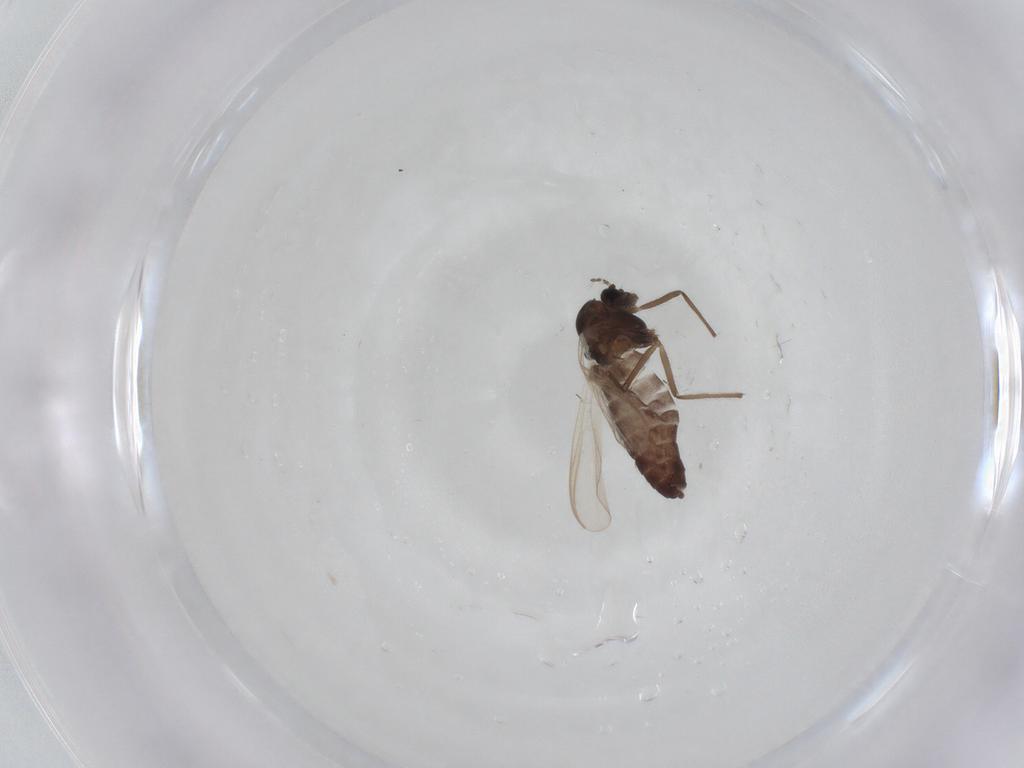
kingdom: Animalia
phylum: Arthropoda
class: Insecta
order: Diptera
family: Sciaridae
